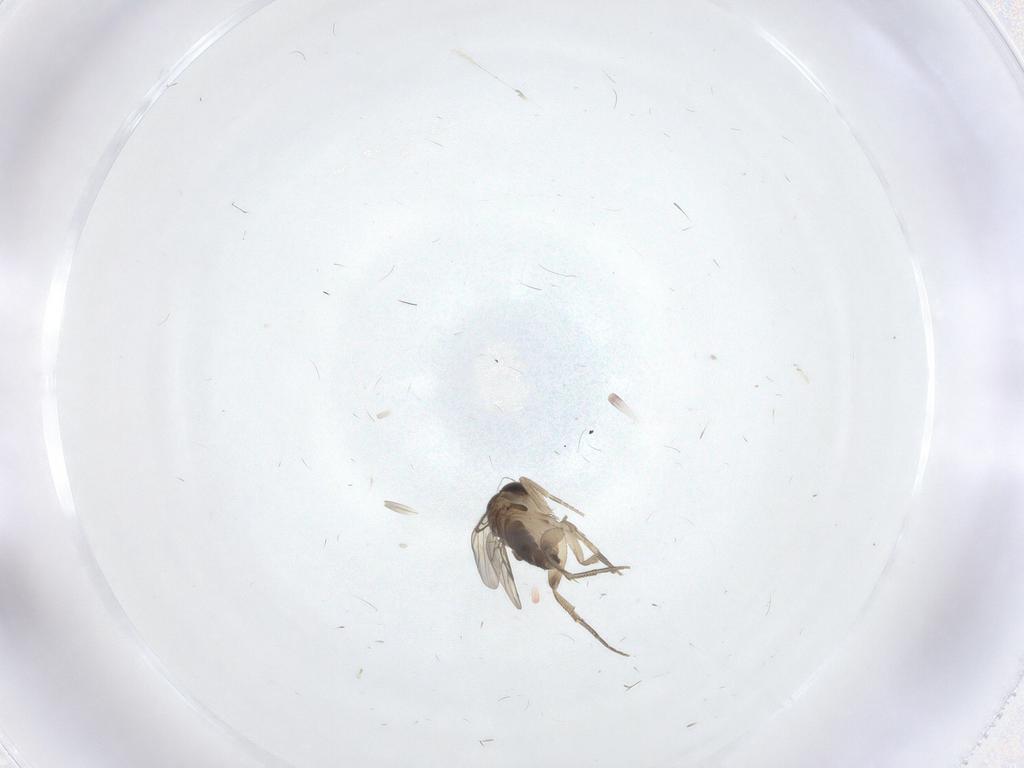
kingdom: Animalia
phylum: Arthropoda
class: Insecta
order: Diptera
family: Phoridae
